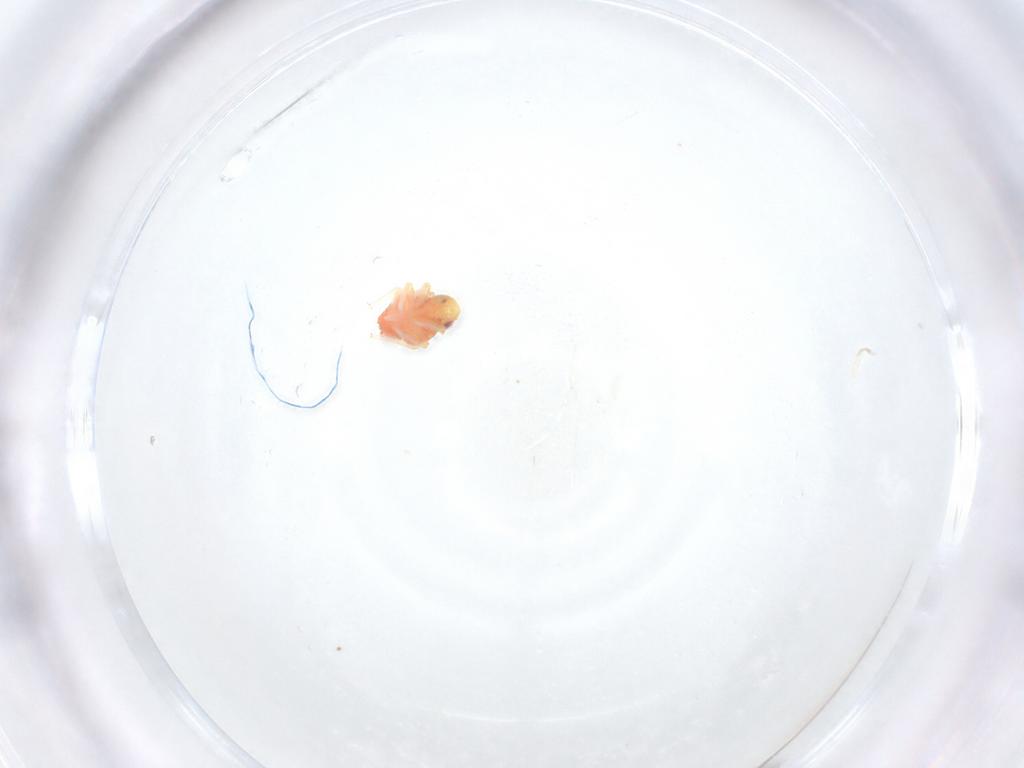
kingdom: Animalia
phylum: Arthropoda
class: Insecta
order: Hemiptera
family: Issidae
